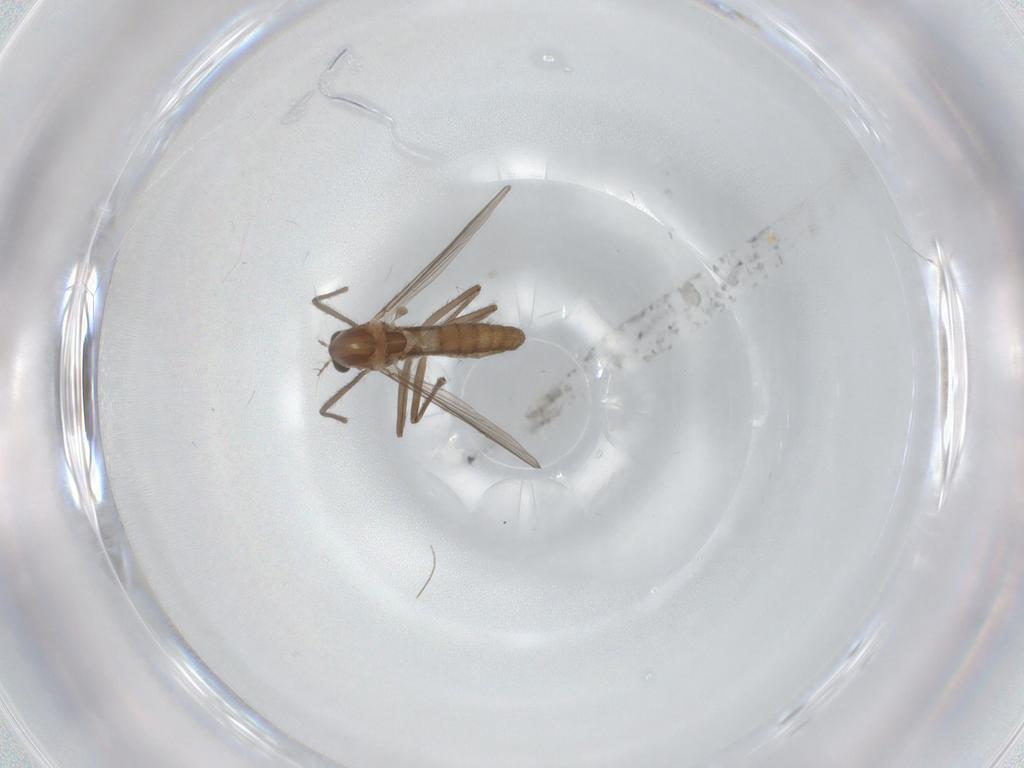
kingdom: Animalia
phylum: Arthropoda
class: Insecta
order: Diptera
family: Chironomidae
